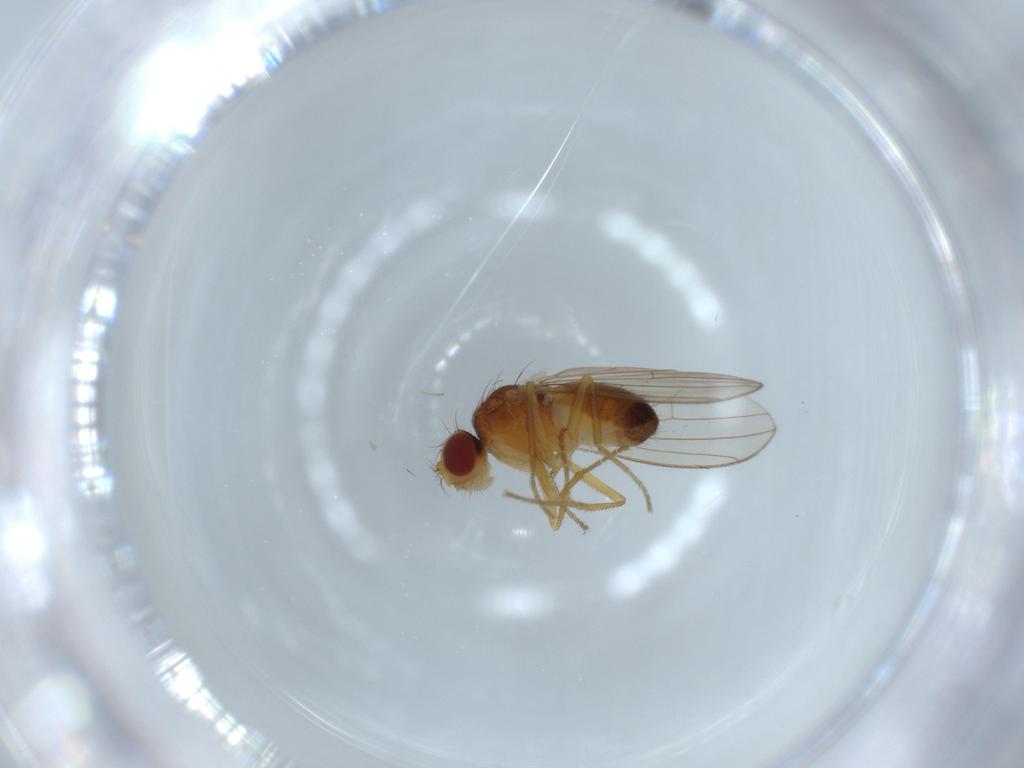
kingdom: Animalia
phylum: Arthropoda
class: Insecta
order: Diptera
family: Drosophilidae
